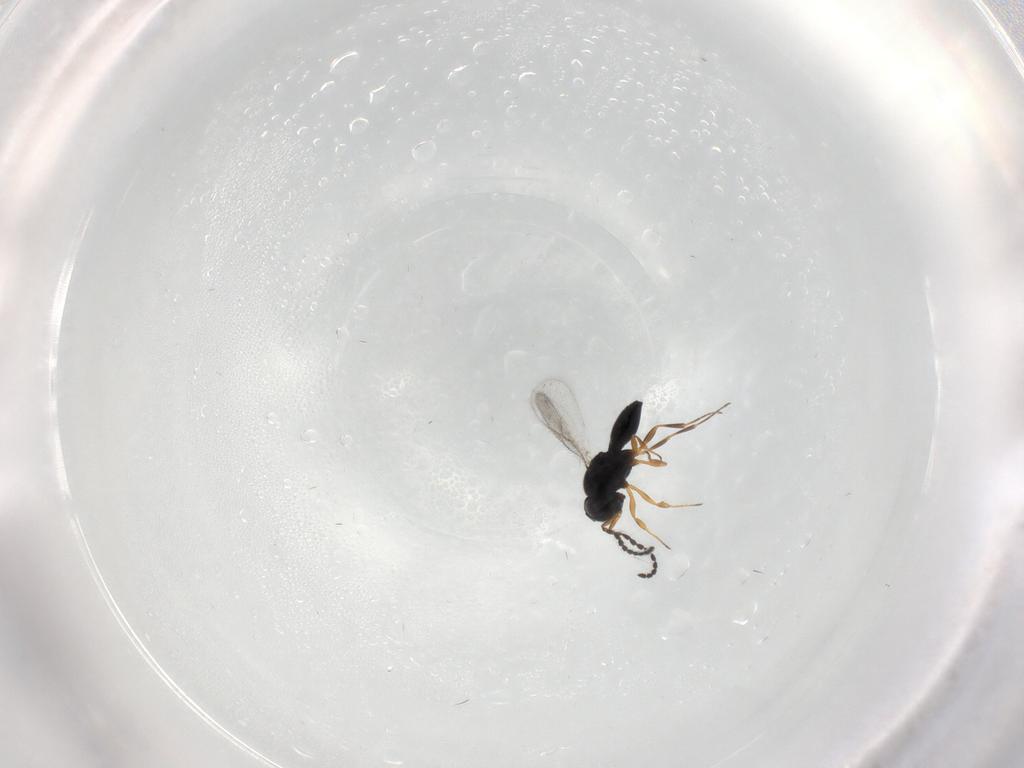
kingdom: Animalia
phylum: Arthropoda
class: Insecta
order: Hymenoptera
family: Scelionidae
